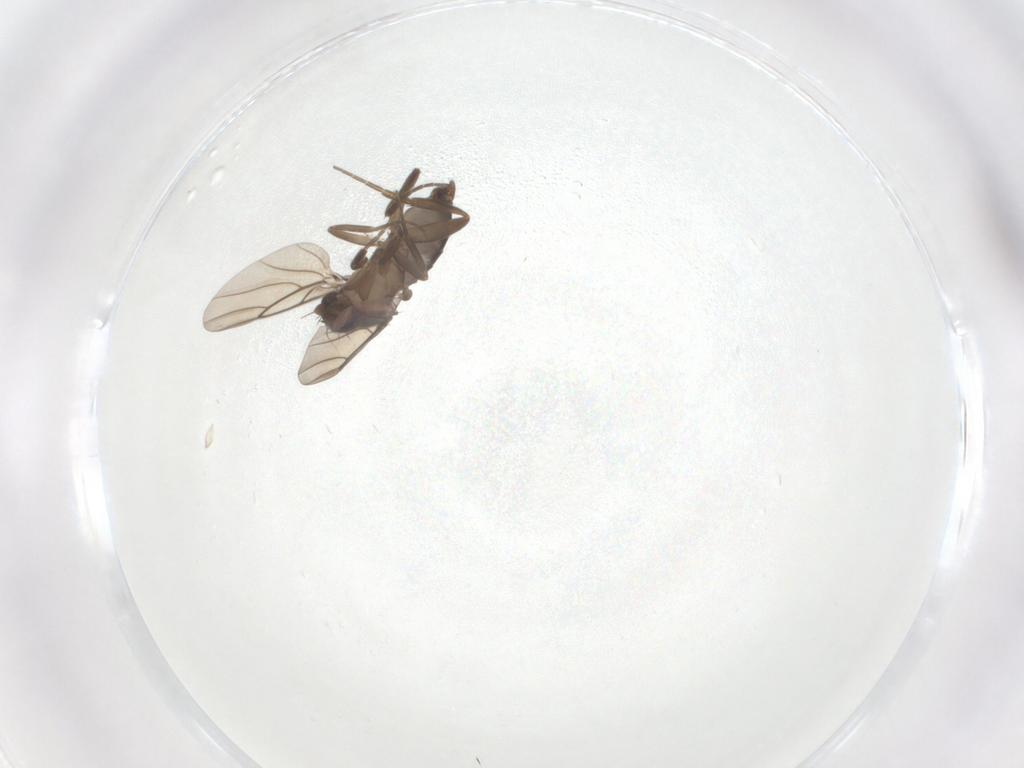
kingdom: Animalia
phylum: Arthropoda
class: Insecta
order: Diptera
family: Phoridae
